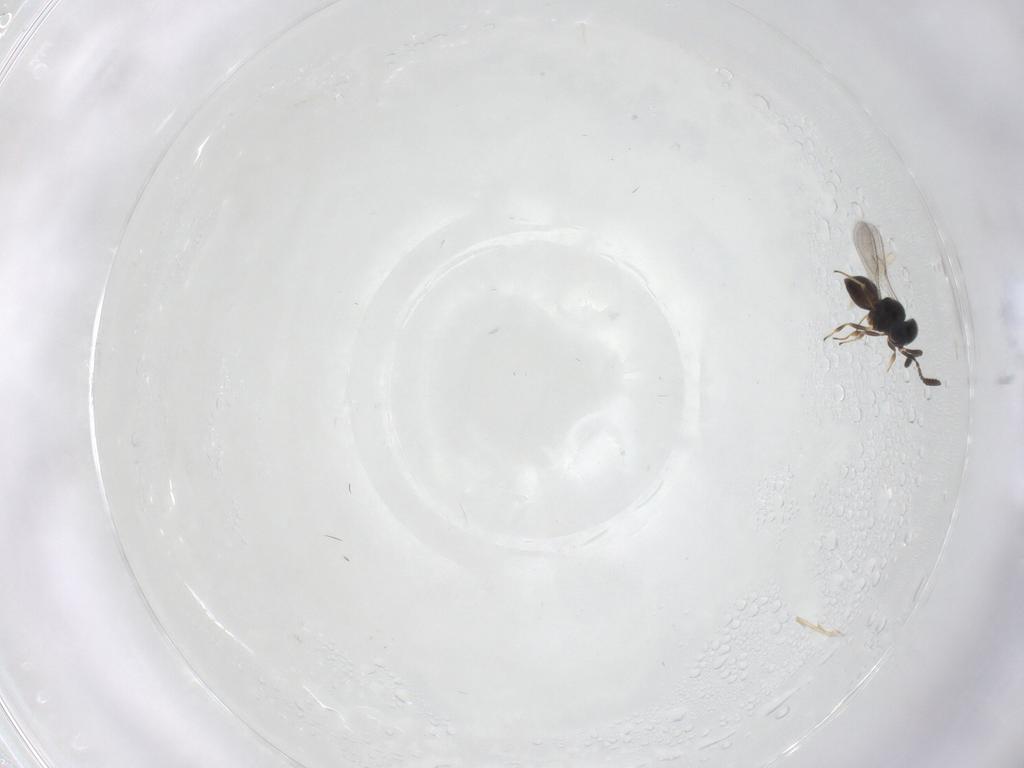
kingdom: Animalia
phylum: Arthropoda
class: Insecta
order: Hymenoptera
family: Scelionidae
